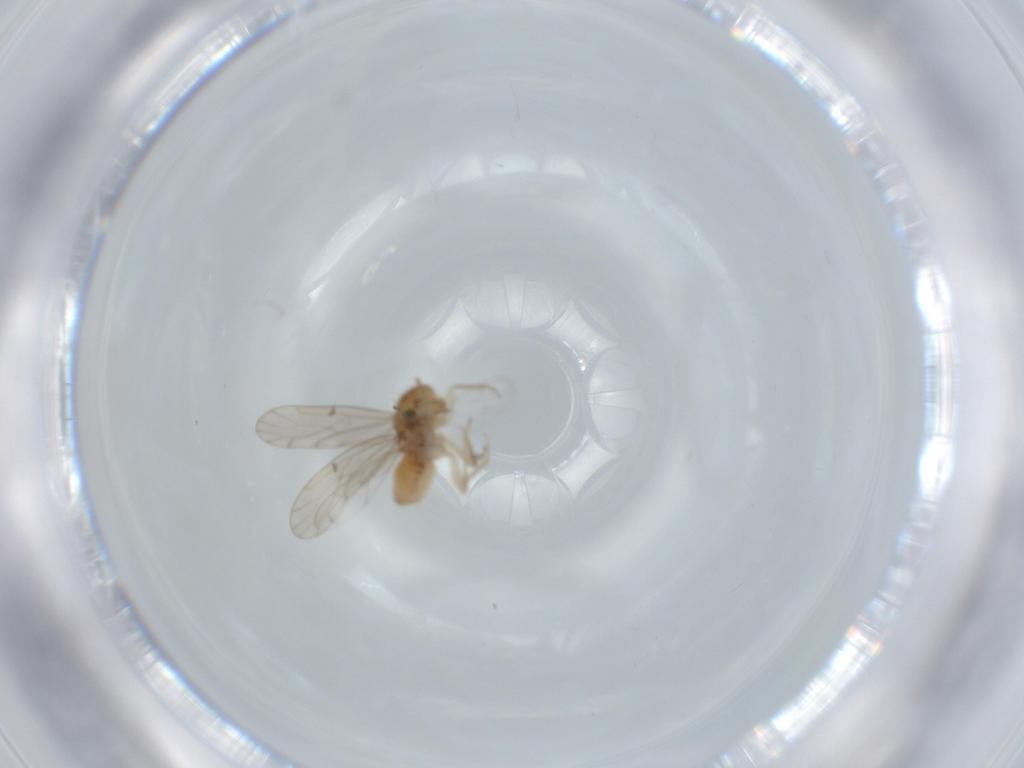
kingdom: Animalia
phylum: Arthropoda
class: Insecta
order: Psocodea
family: Ectopsocidae
